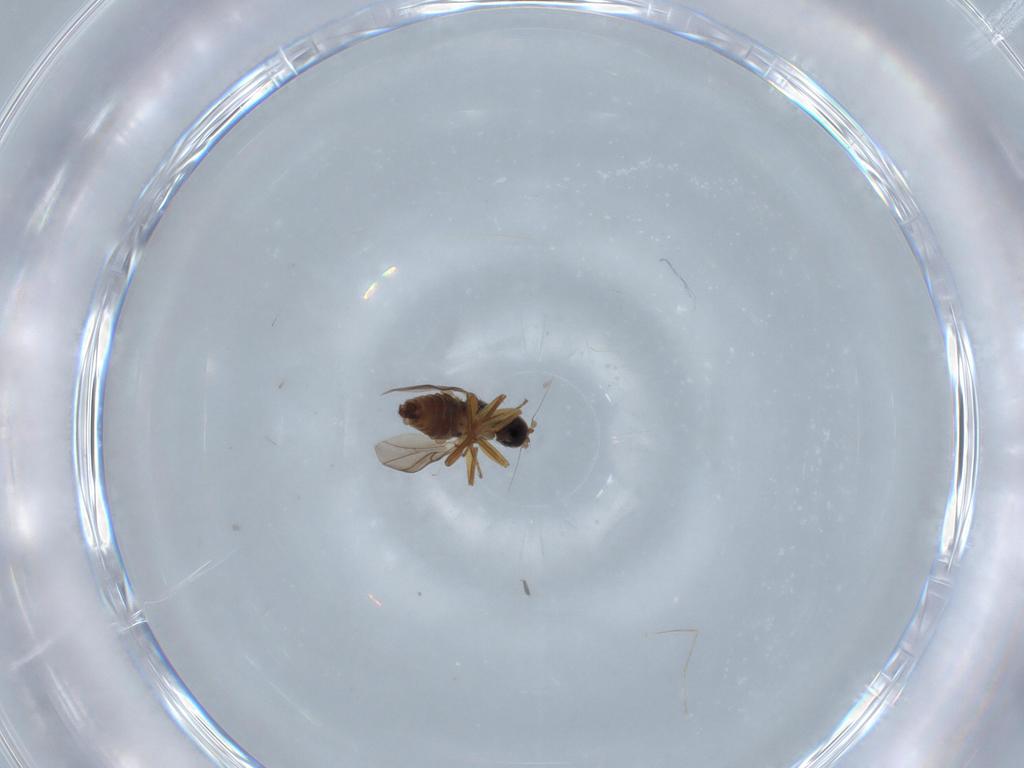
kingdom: Animalia
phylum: Arthropoda
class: Insecta
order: Diptera
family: Cecidomyiidae
